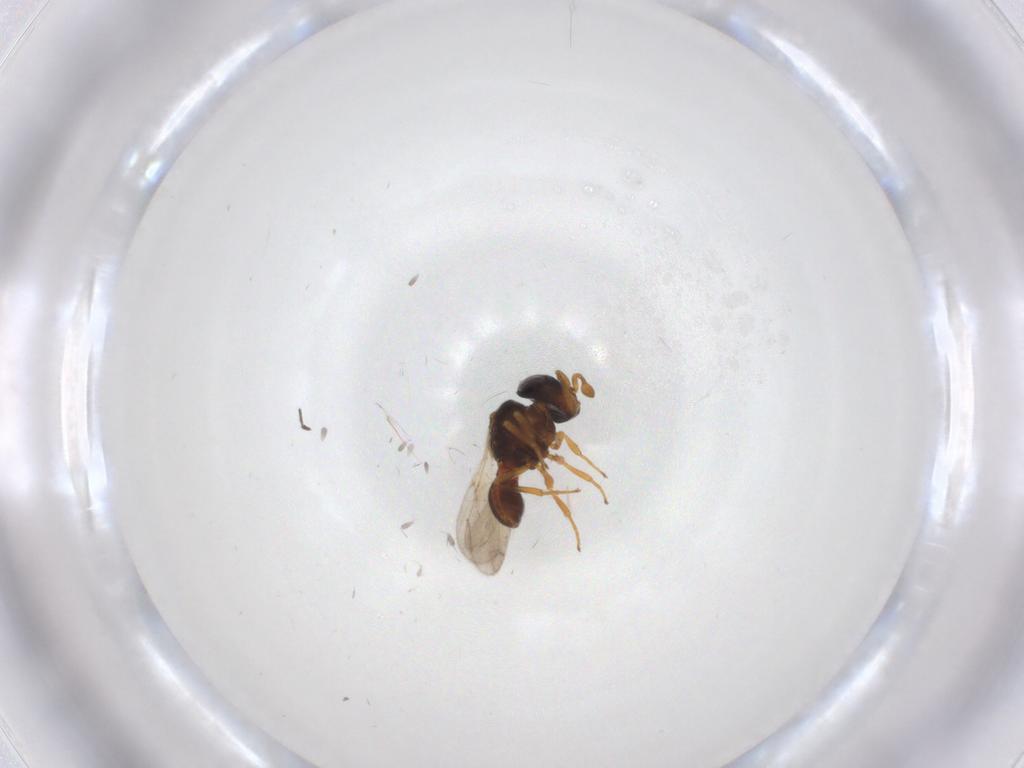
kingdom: Animalia
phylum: Arthropoda
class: Insecta
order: Hymenoptera
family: Scelionidae
